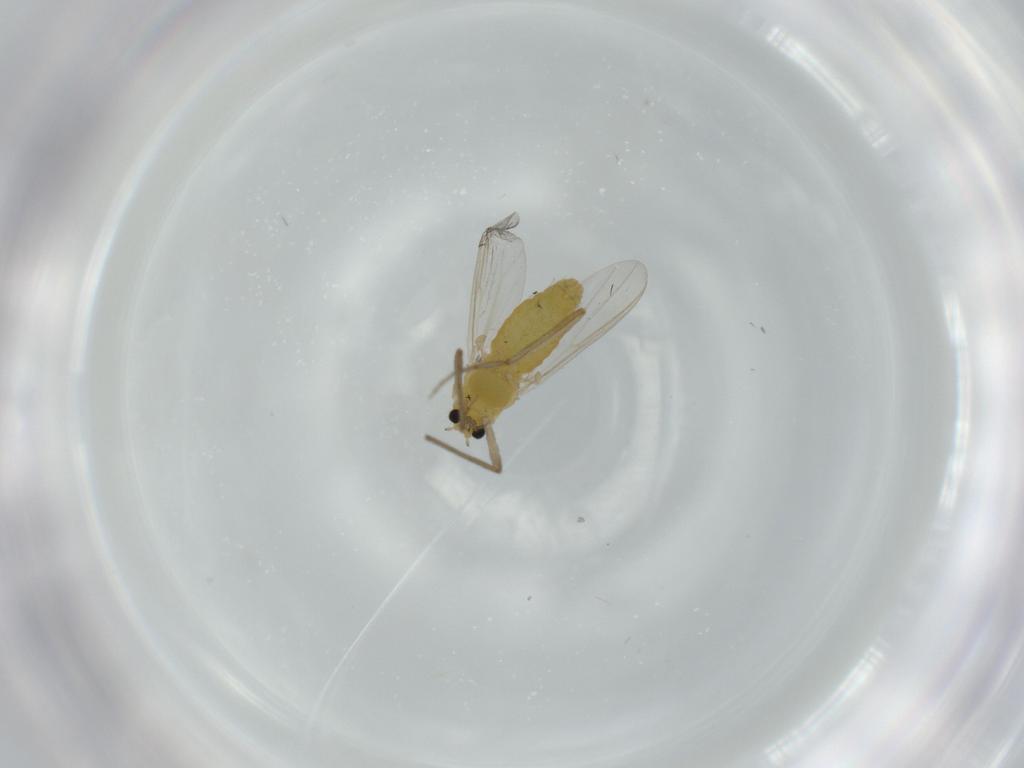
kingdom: Animalia
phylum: Arthropoda
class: Insecta
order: Diptera
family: Chironomidae
